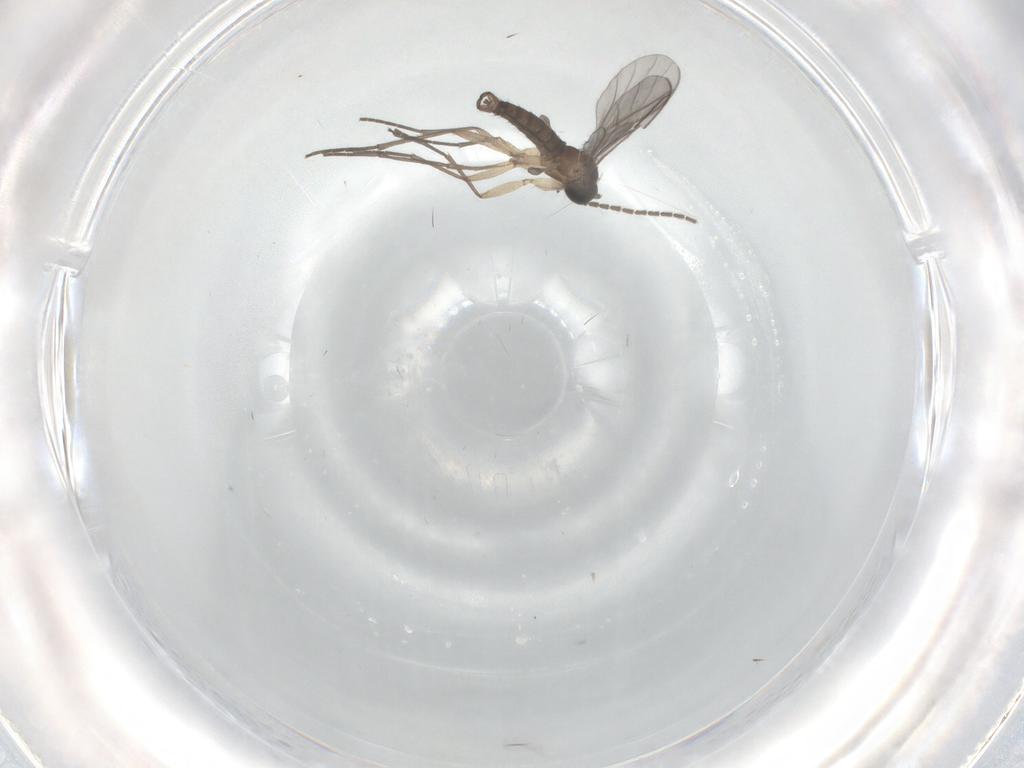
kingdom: Animalia
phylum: Arthropoda
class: Insecta
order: Diptera
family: Sciaridae
